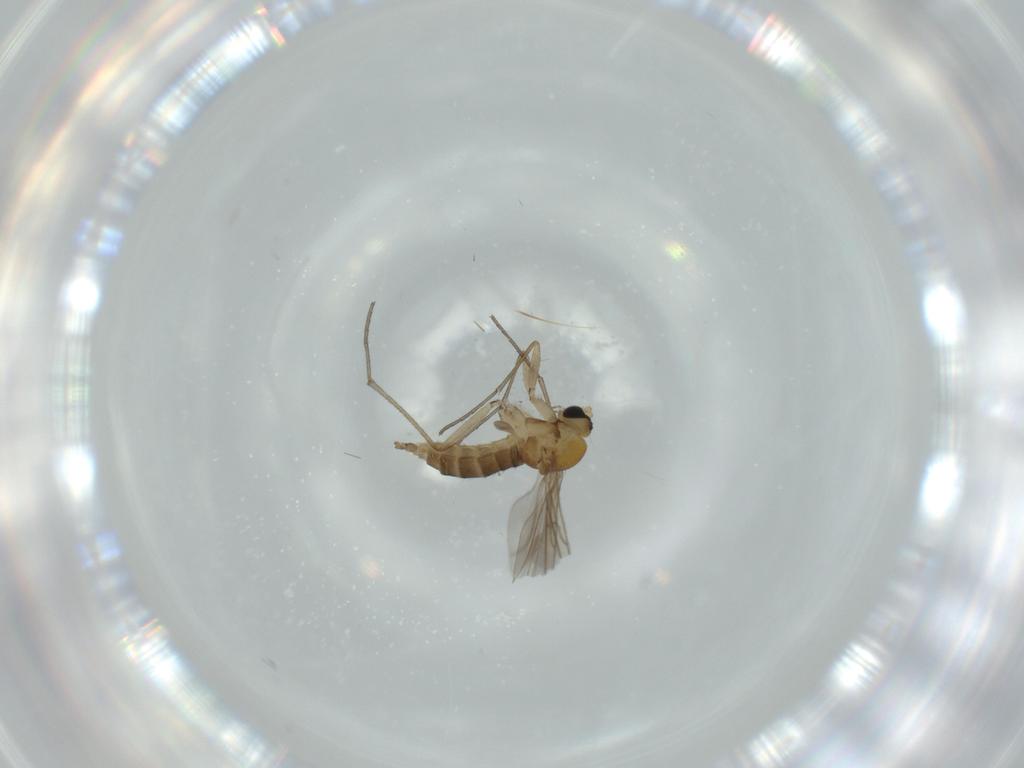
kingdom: Animalia
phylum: Arthropoda
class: Insecta
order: Diptera
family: Milichiidae
